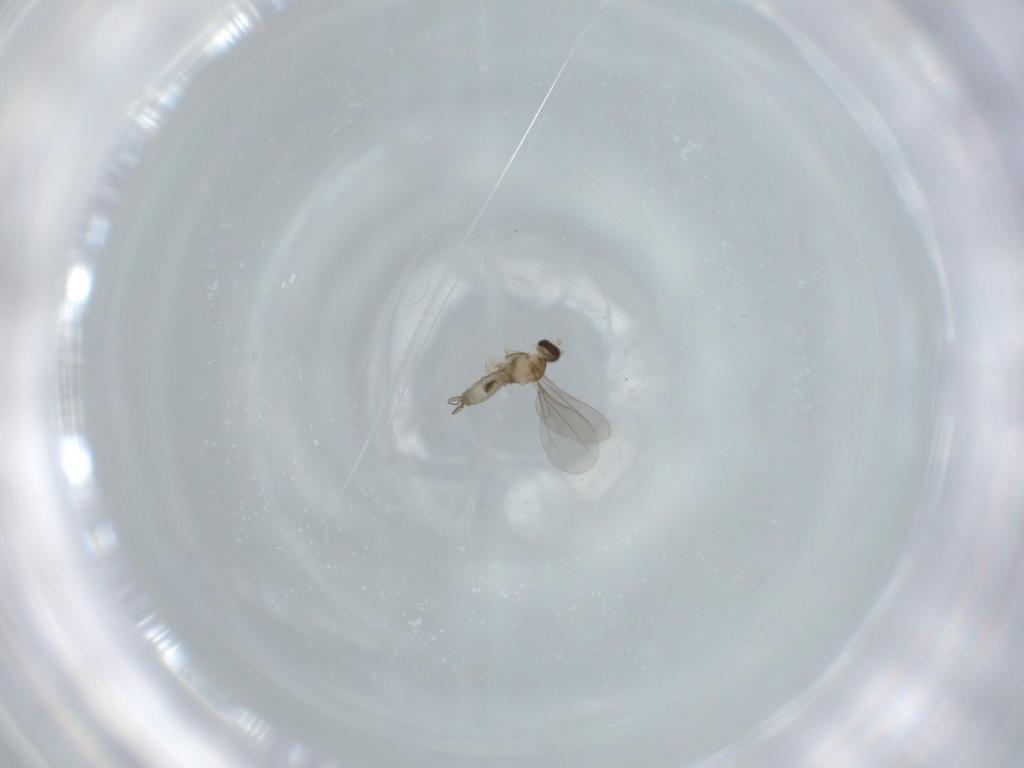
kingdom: Animalia
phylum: Arthropoda
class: Insecta
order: Diptera
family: Cecidomyiidae
